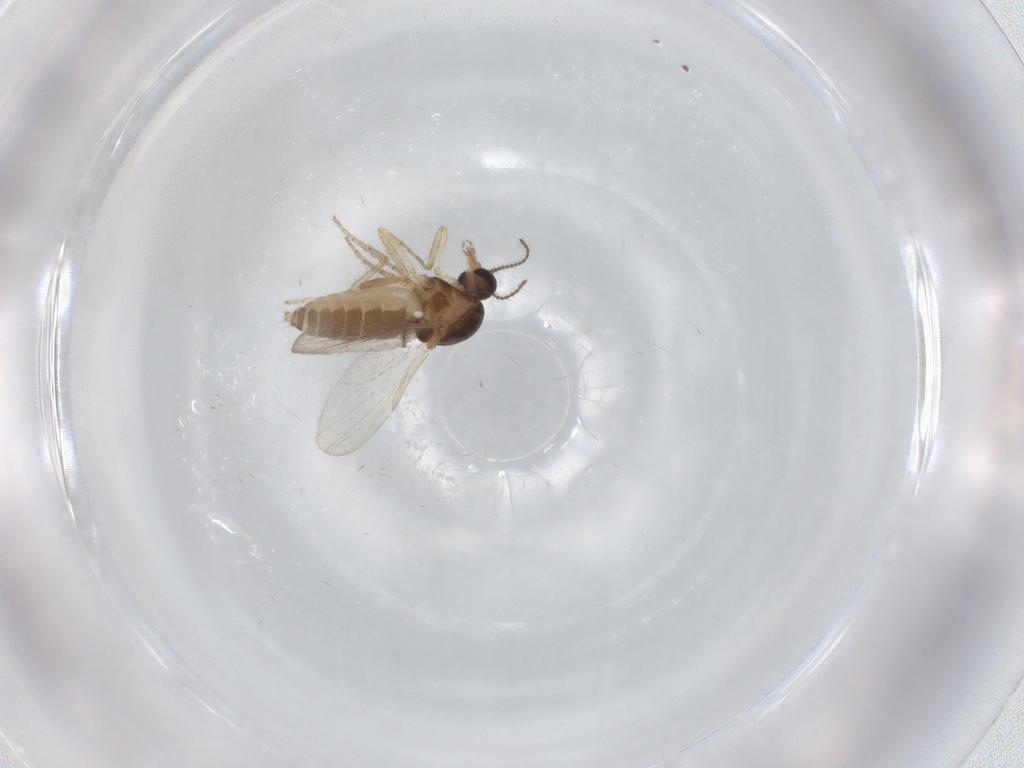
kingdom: Animalia
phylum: Arthropoda
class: Insecta
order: Diptera
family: Ceratopogonidae
